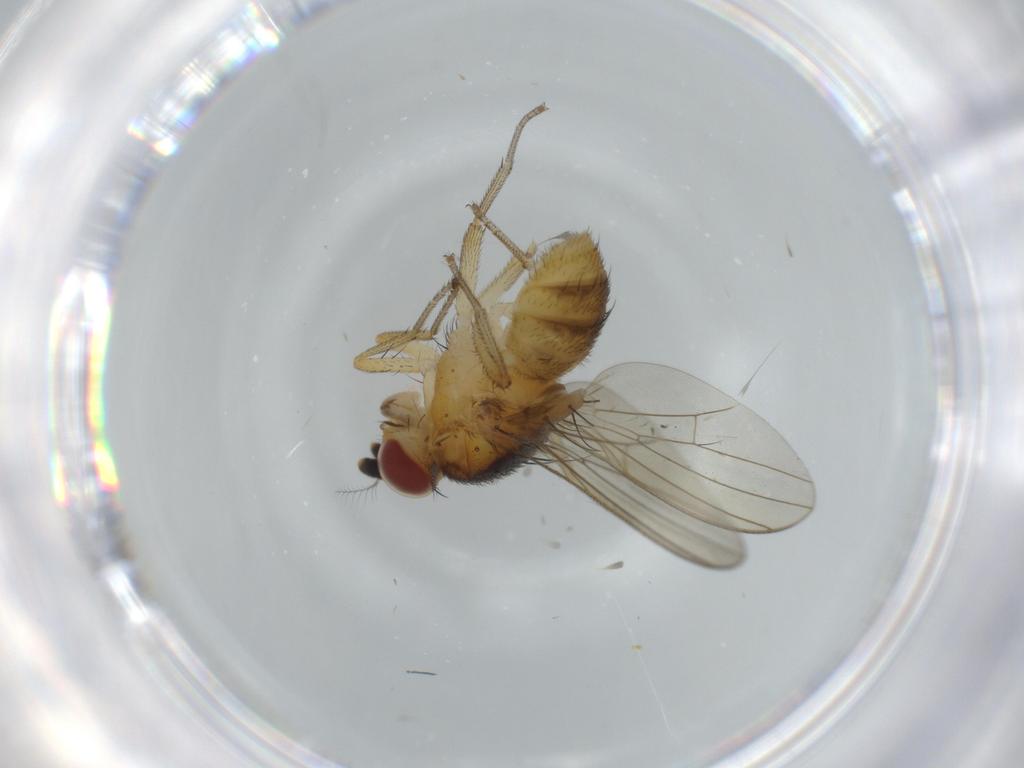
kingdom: Animalia
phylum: Arthropoda
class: Insecta
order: Diptera
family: Lauxaniidae
